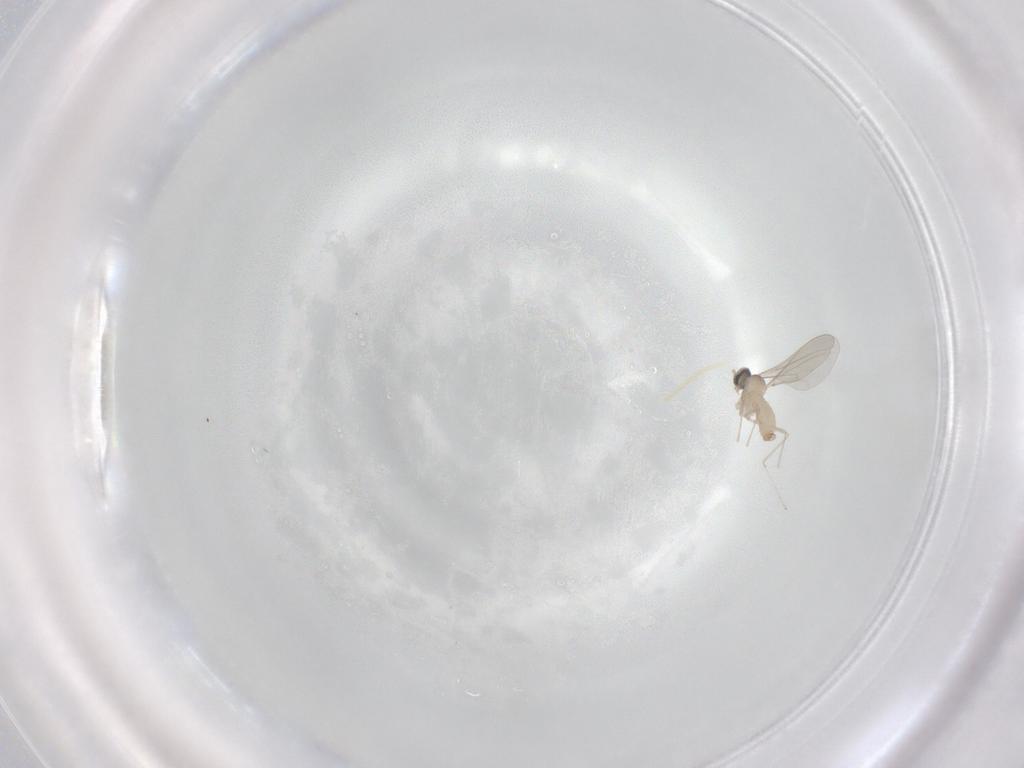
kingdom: Animalia
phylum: Arthropoda
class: Insecta
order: Diptera
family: Cecidomyiidae
